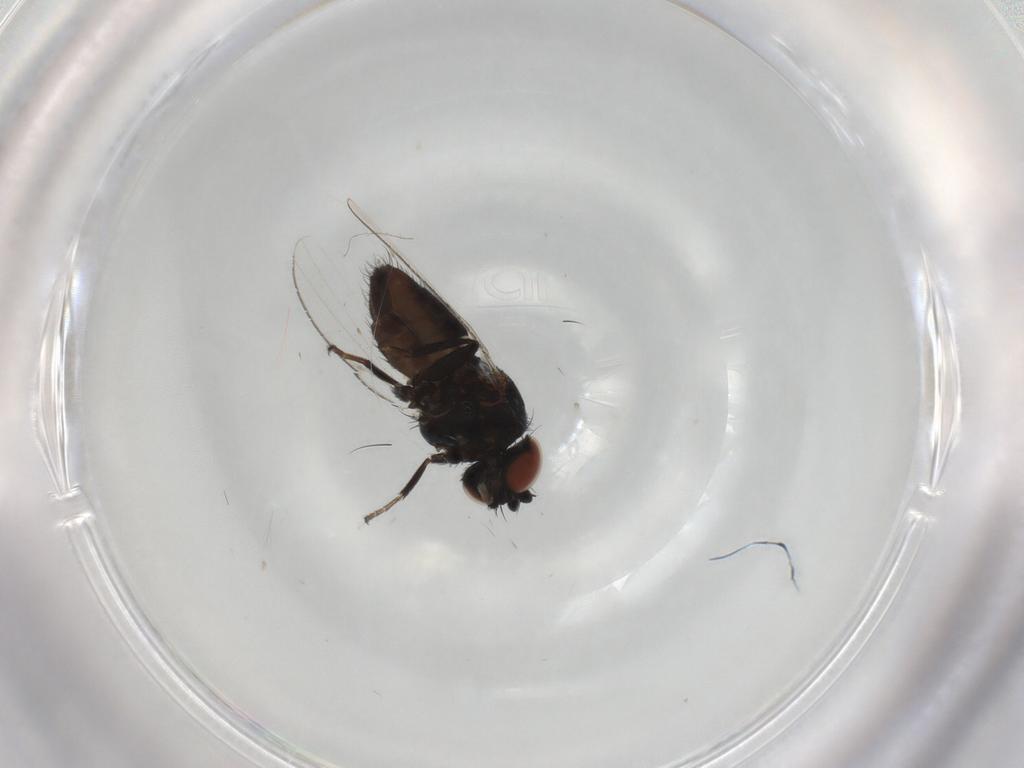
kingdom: Animalia
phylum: Arthropoda
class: Insecta
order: Diptera
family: Milichiidae
